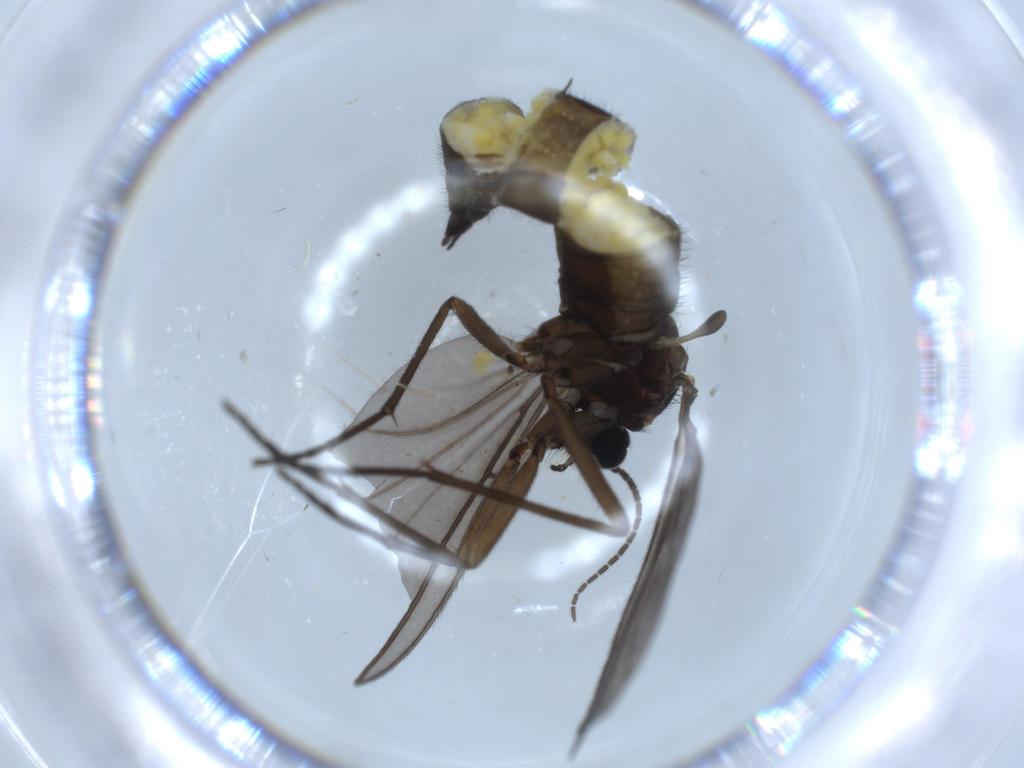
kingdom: Animalia
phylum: Arthropoda
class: Insecta
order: Diptera
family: Sciaridae
